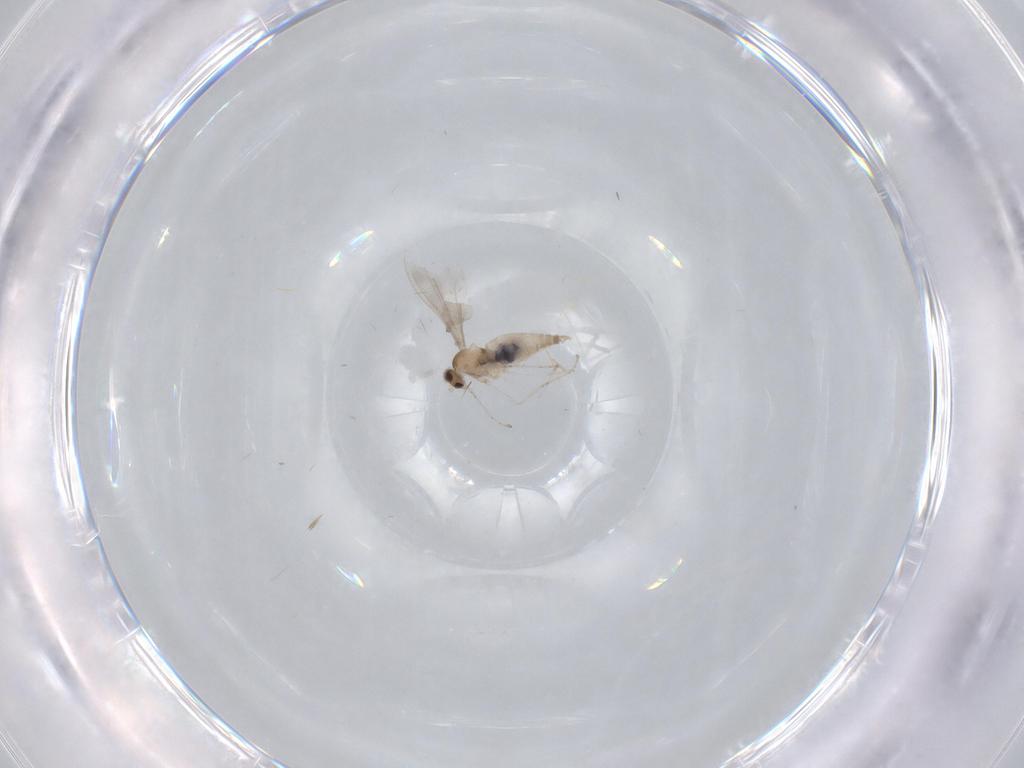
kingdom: Animalia
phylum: Arthropoda
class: Insecta
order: Diptera
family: Cecidomyiidae
